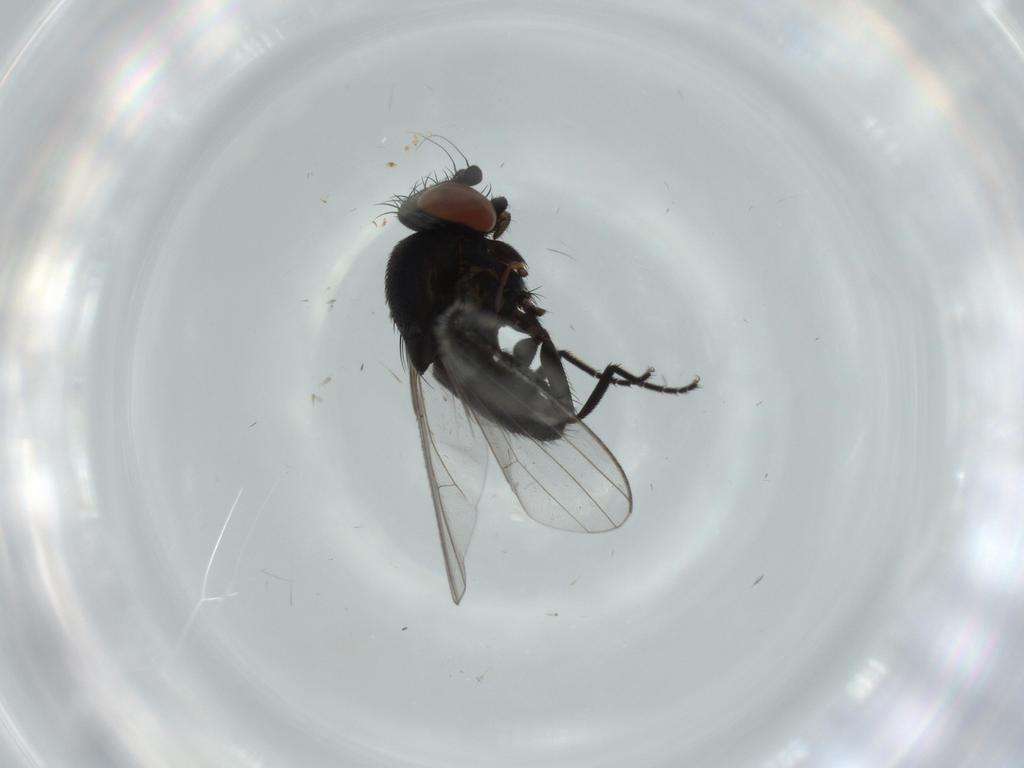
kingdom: Animalia
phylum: Arthropoda
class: Insecta
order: Diptera
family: Milichiidae
